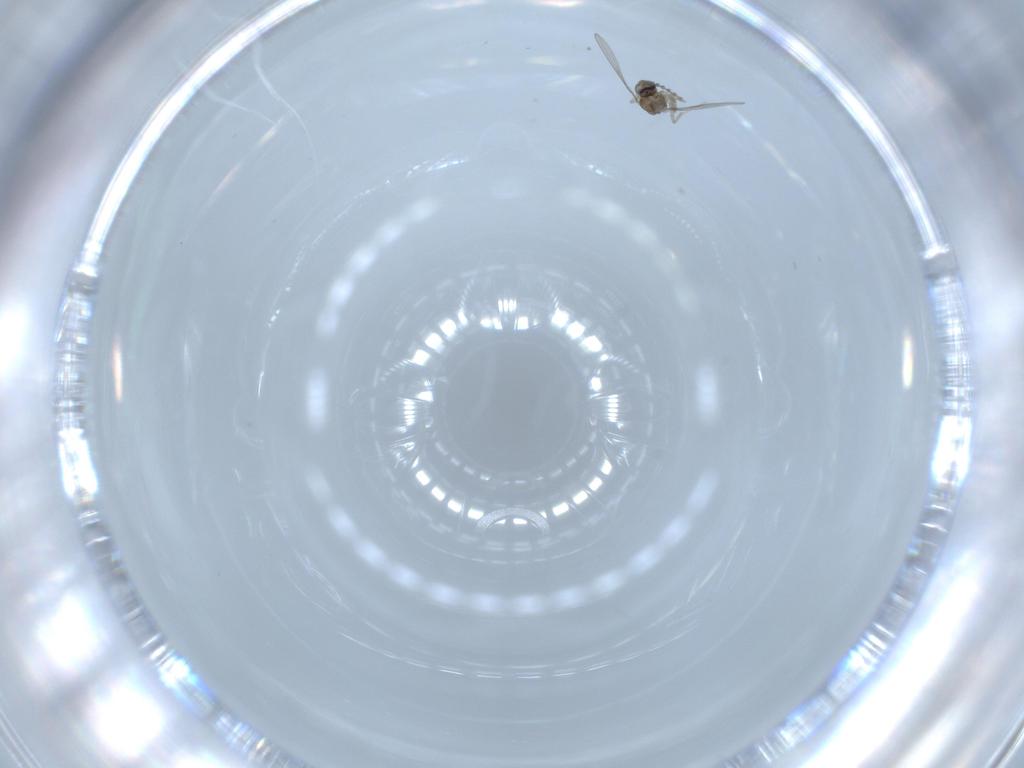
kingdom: Animalia
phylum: Arthropoda
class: Insecta
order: Diptera
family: Cecidomyiidae
